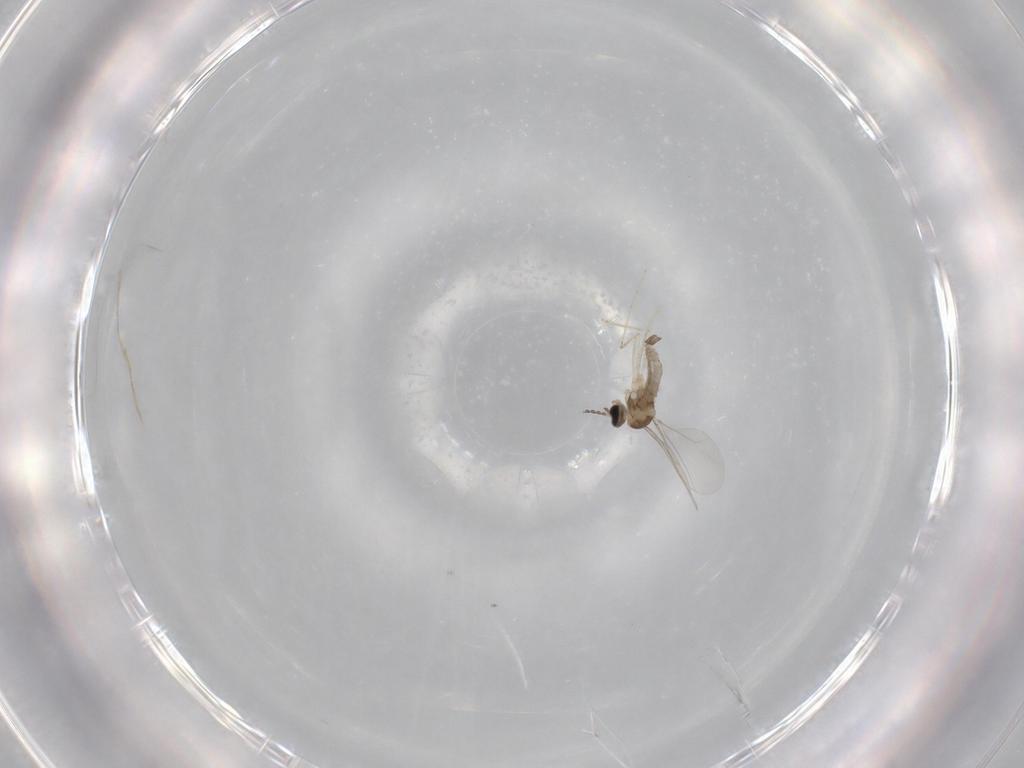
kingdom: Animalia
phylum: Arthropoda
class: Insecta
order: Diptera
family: Cecidomyiidae
